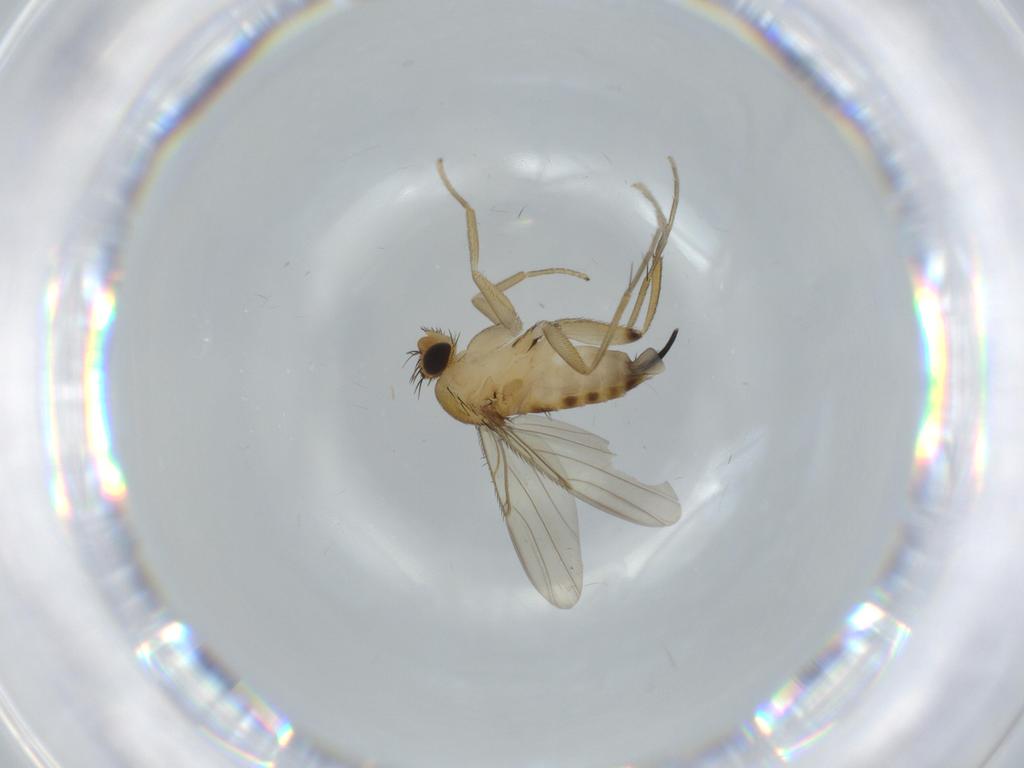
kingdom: Animalia
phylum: Arthropoda
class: Insecta
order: Diptera
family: Phoridae
